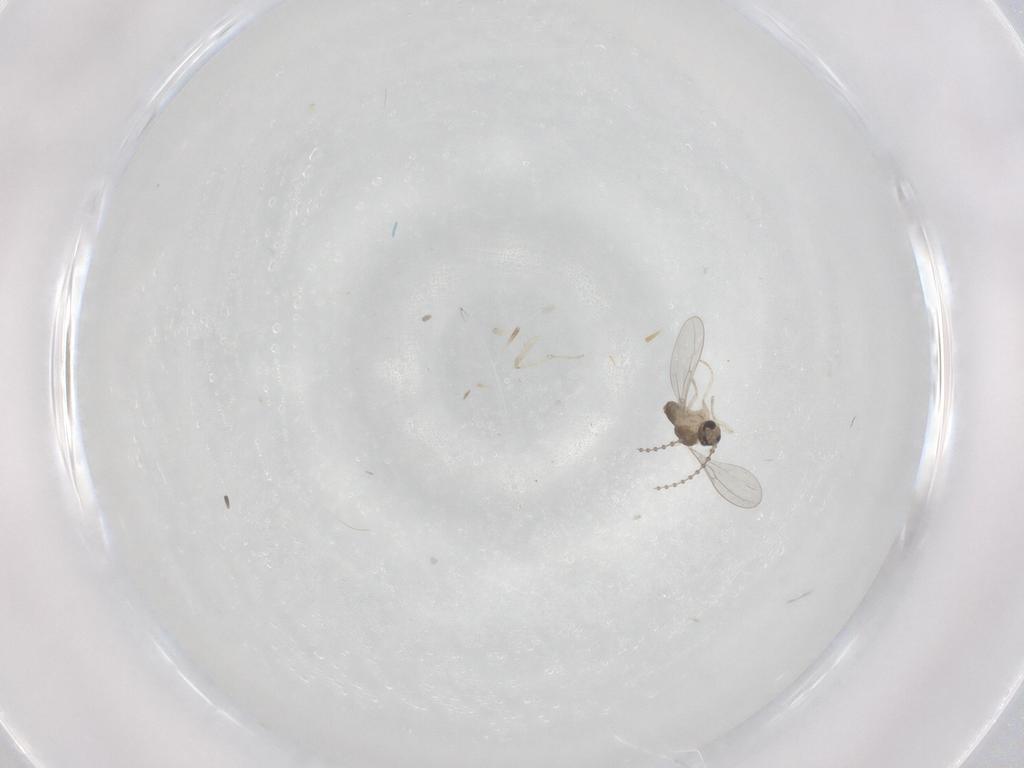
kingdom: Animalia
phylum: Arthropoda
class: Insecta
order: Diptera
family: Cecidomyiidae
